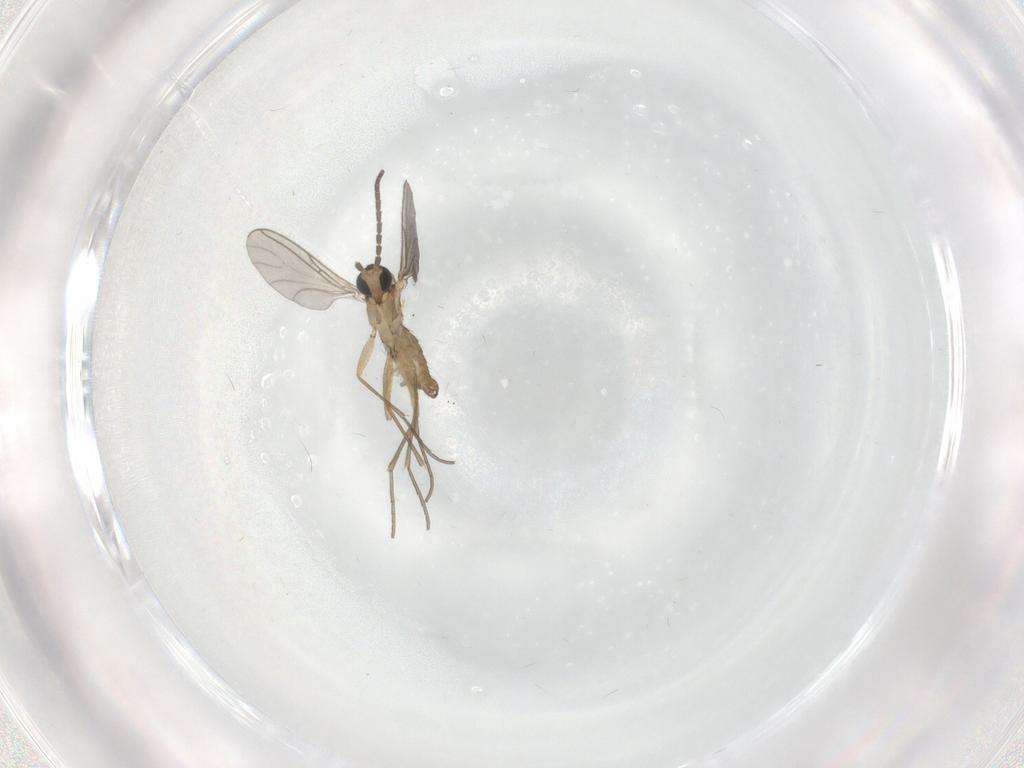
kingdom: Animalia
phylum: Arthropoda
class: Insecta
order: Diptera
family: Sciaridae
